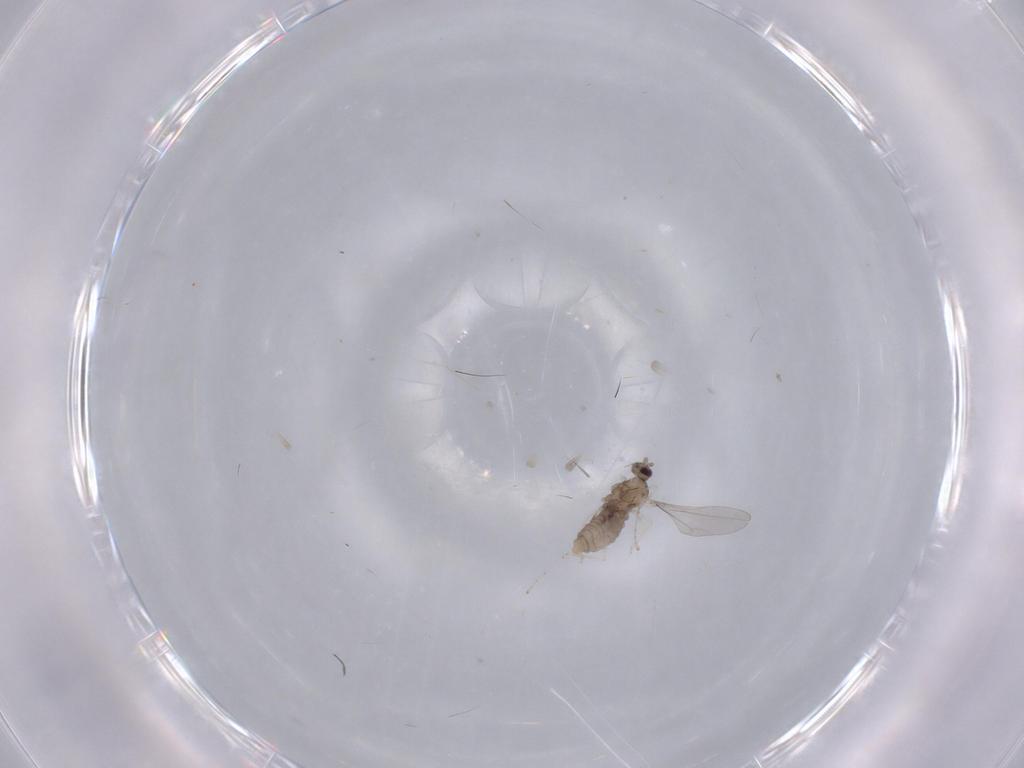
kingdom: Animalia
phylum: Arthropoda
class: Insecta
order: Diptera
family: Cecidomyiidae
